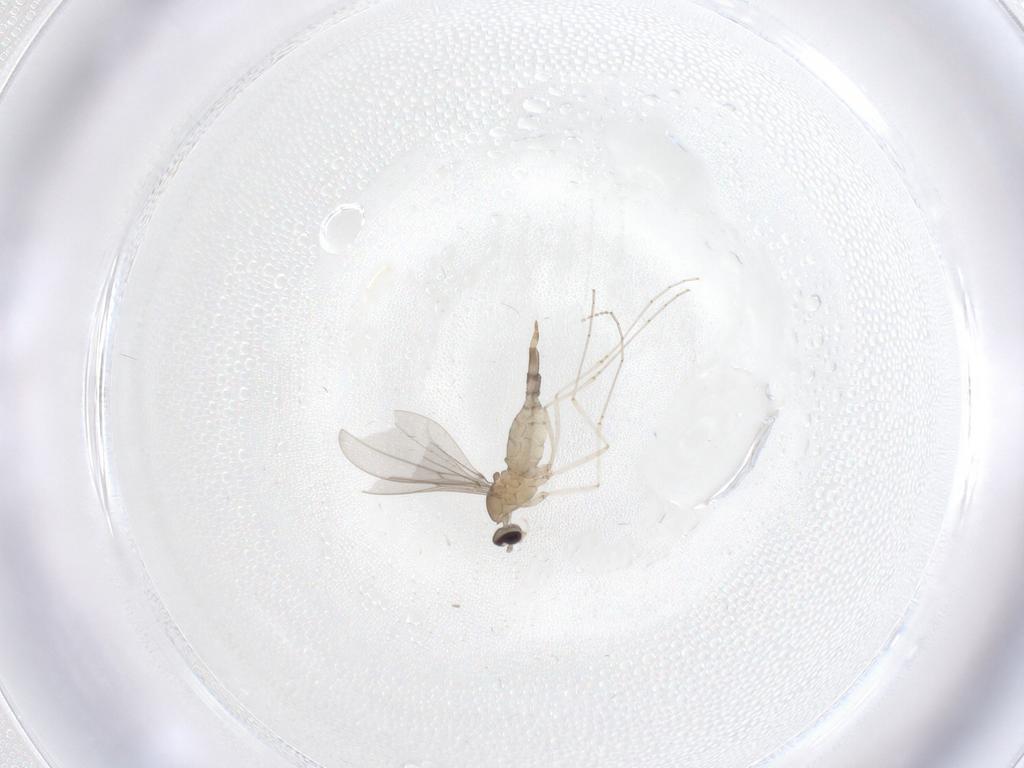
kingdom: Animalia
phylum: Arthropoda
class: Insecta
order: Diptera
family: Cecidomyiidae
